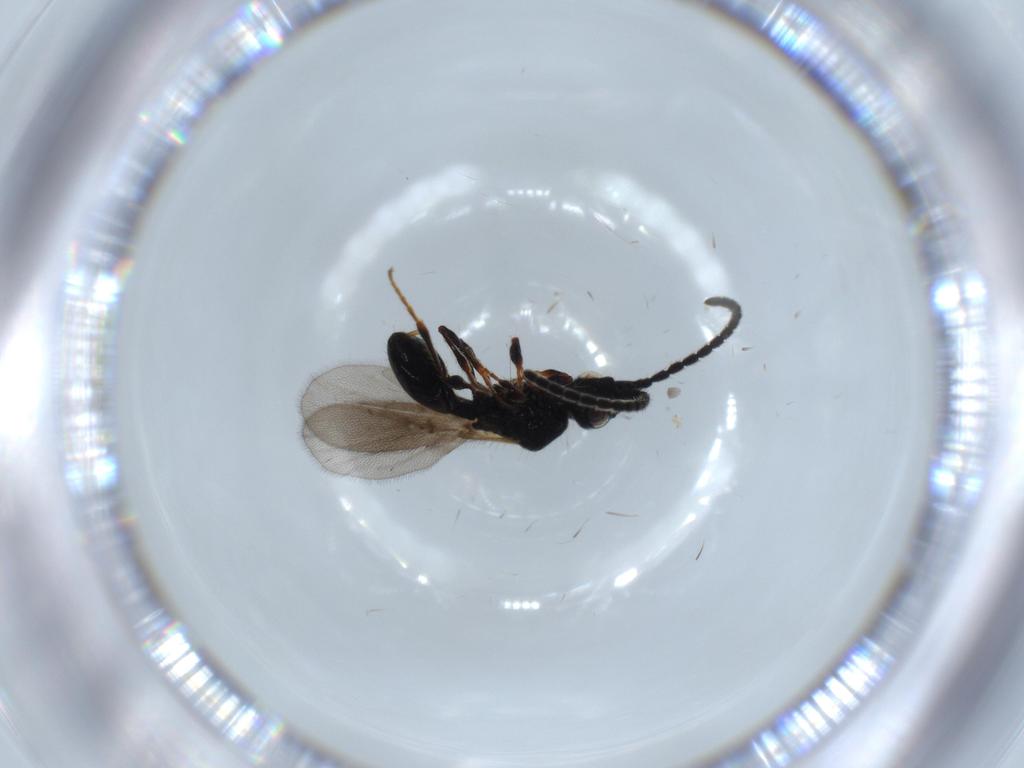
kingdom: Animalia
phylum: Arthropoda
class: Insecta
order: Hymenoptera
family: Diapriidae
